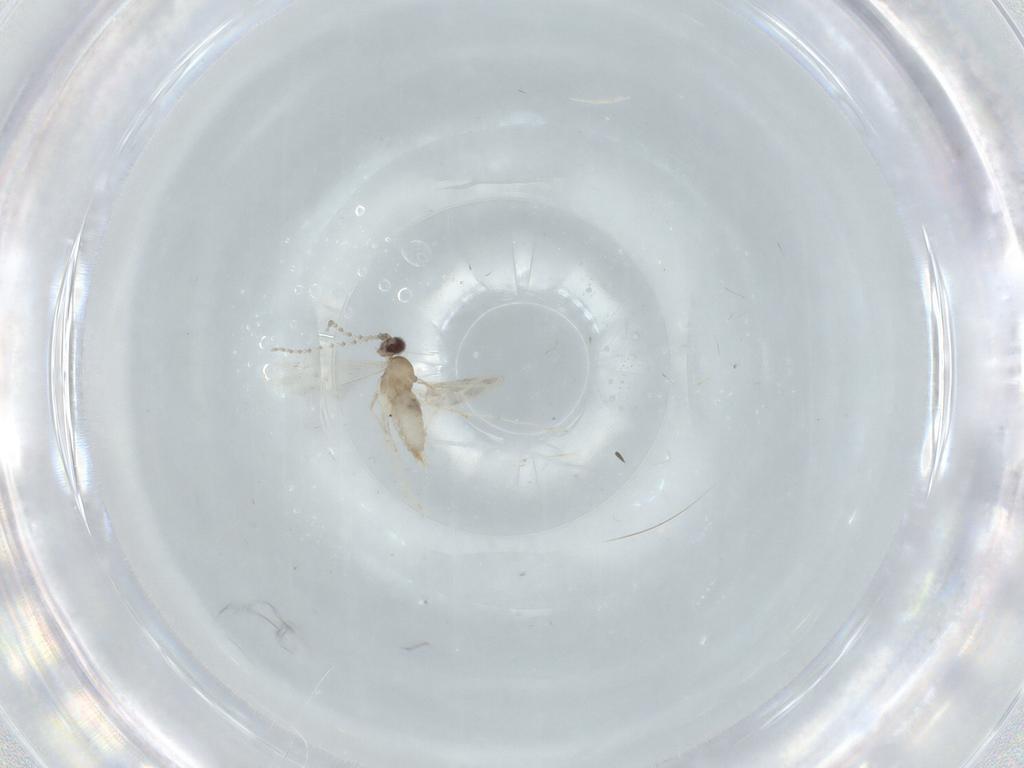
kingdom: Animalia
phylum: Arthropoda
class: Insecta
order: Diptera
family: Cecidomyiidae
